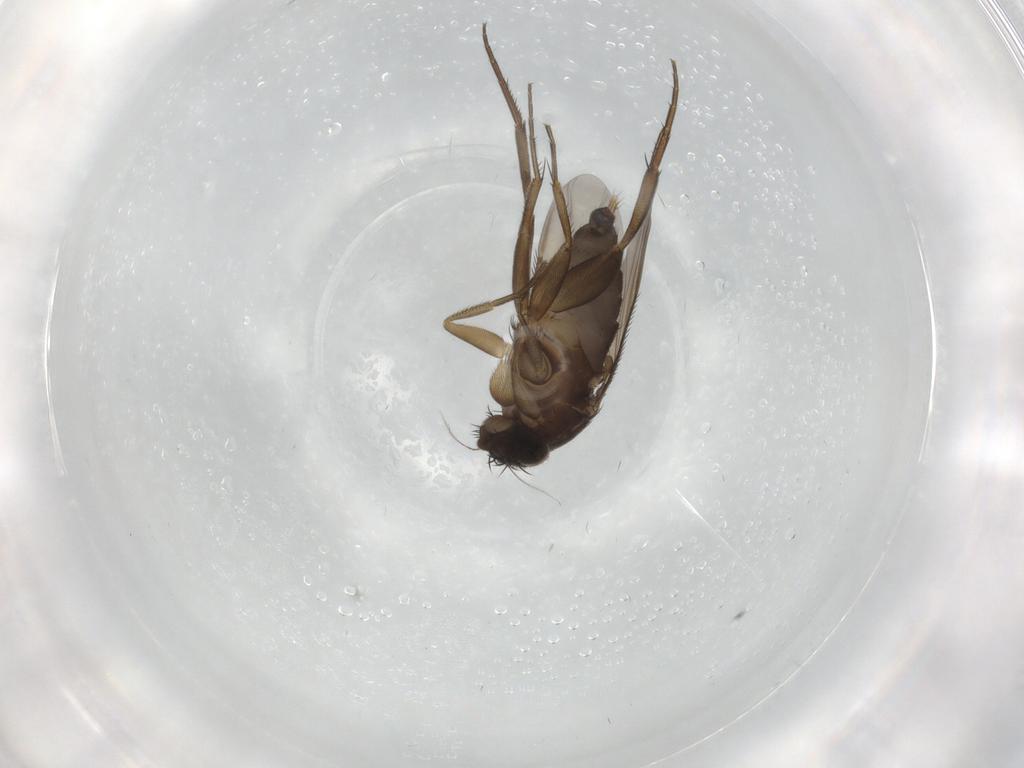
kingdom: Animalia
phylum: Arthropoda
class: Insecta
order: Diptera
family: Phoridae
